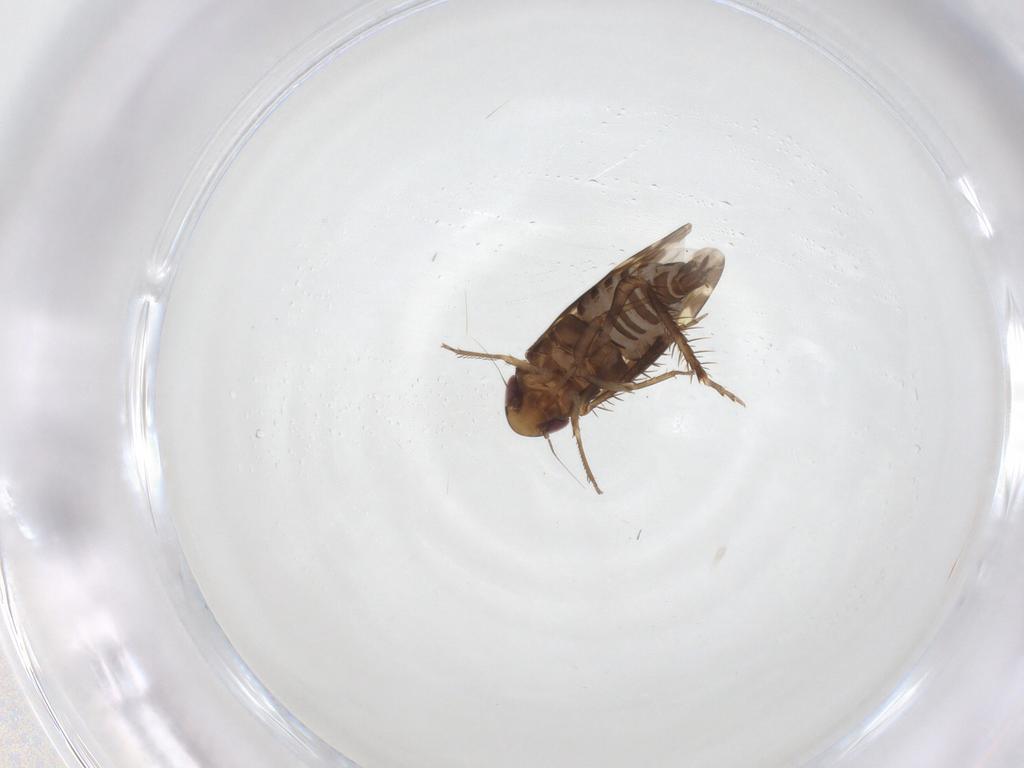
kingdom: Animalia
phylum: Arthropoda
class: Insecta
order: Hemiptera
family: Cicadellidae
